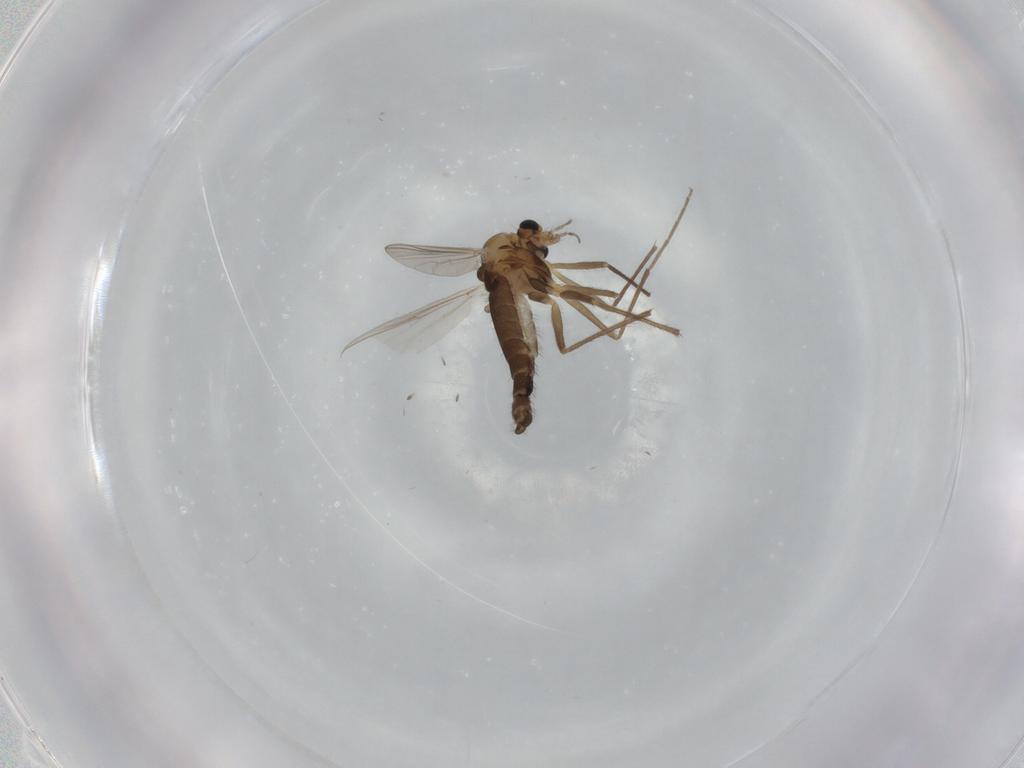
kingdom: Animalia
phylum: Arthropoda
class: Insecta
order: Diptera
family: Chironomidae
